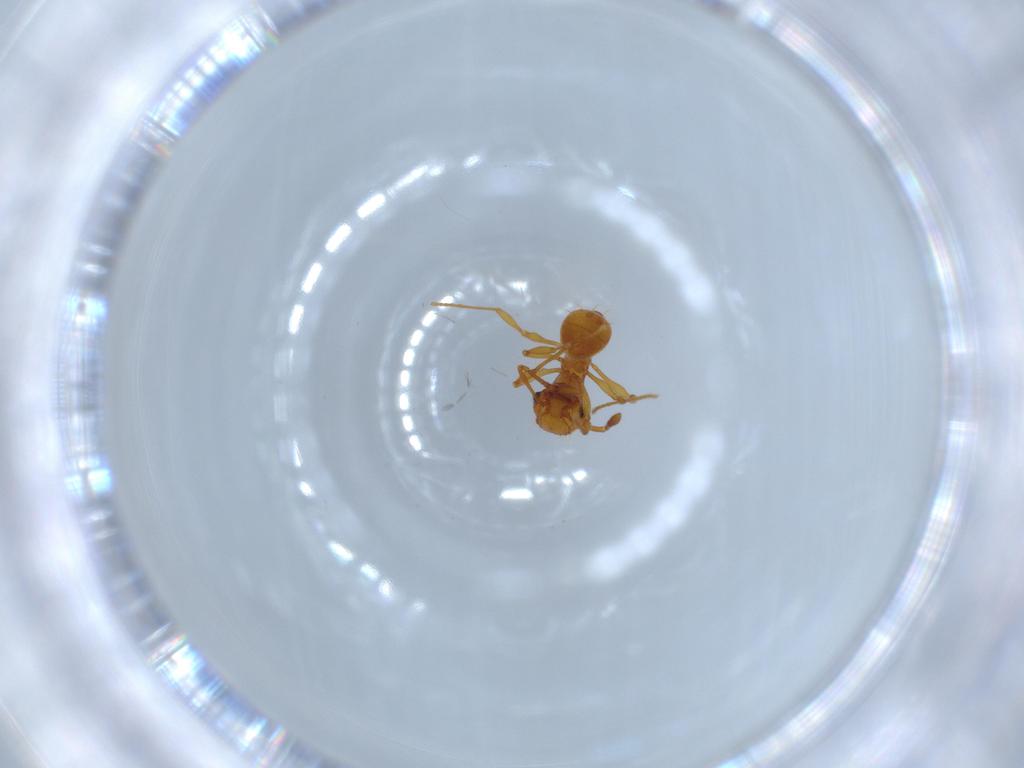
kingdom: Animalia
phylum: Arthropoda
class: Insecta
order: Hymenoptera
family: Formicidae
